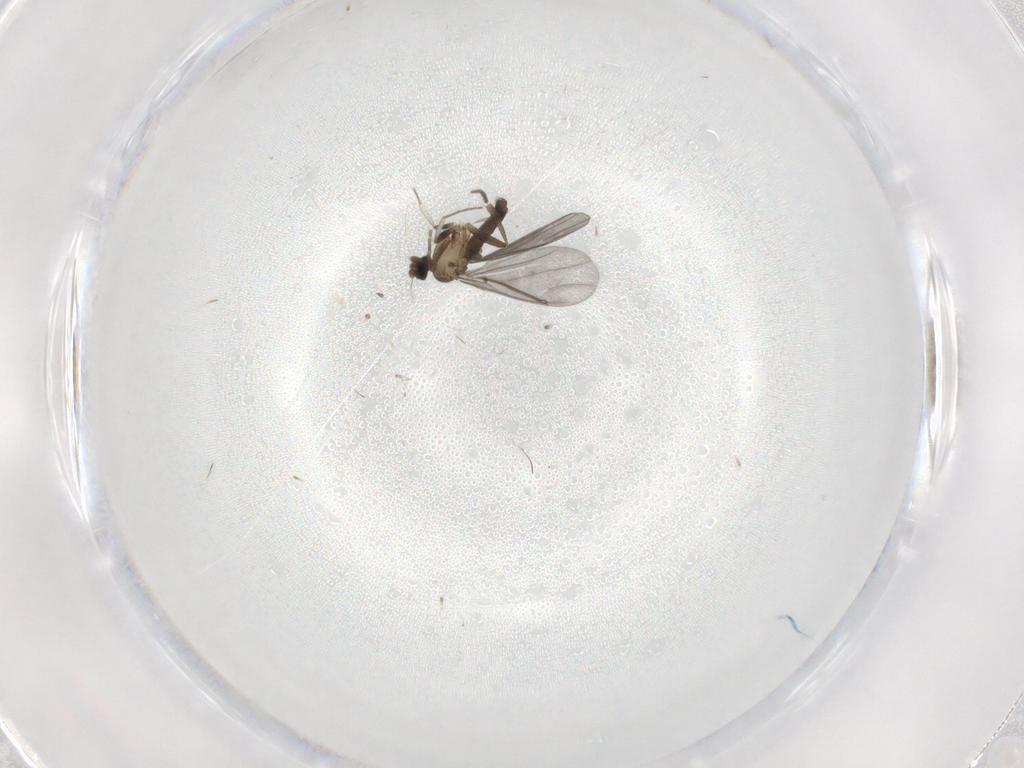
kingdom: Animalia
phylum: Arthropoda
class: Insecta
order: Diptera
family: Phoridae
